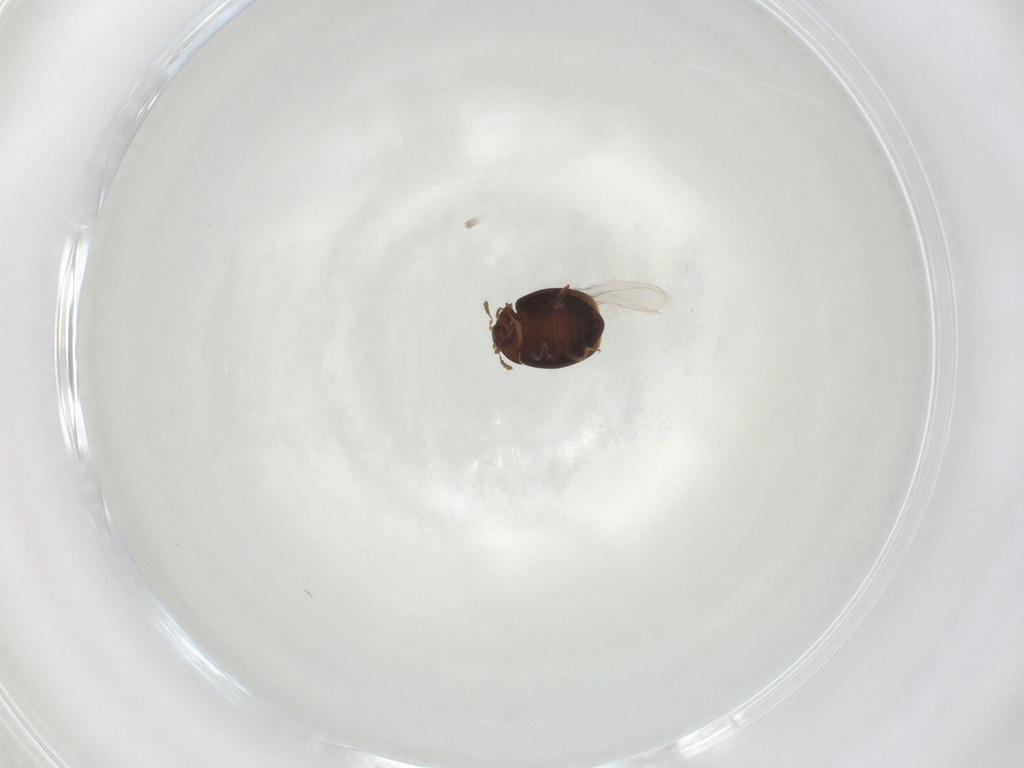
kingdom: Animalia
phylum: Arthropoda
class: Insecta
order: Coleoptera
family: Corylophidae
